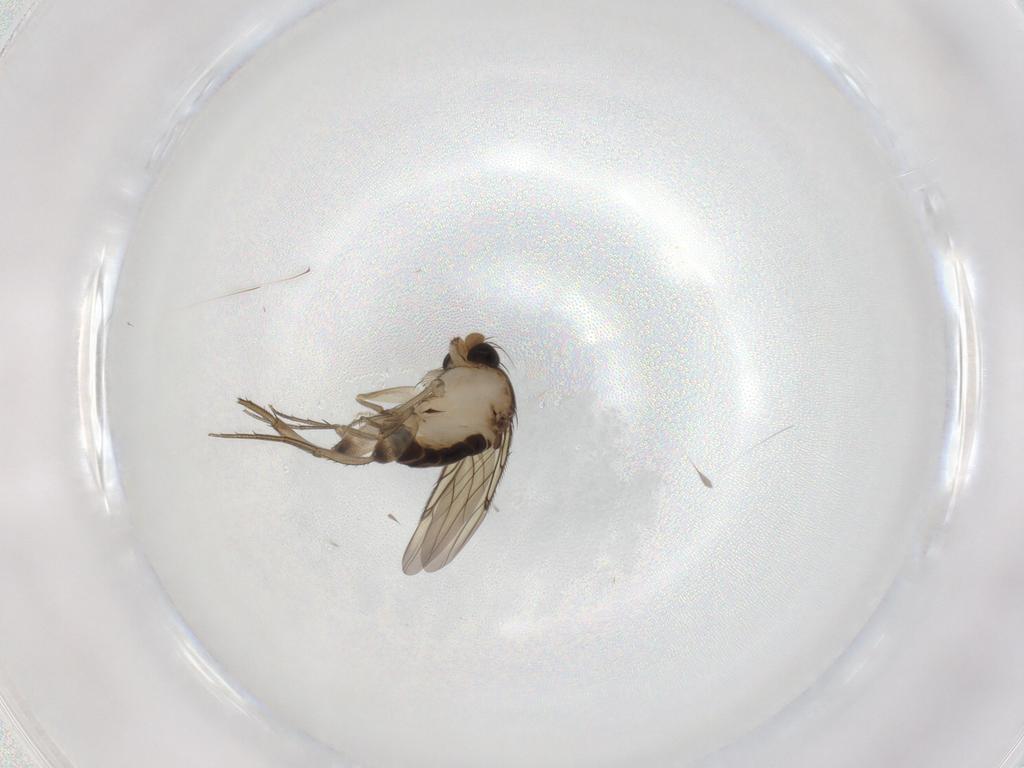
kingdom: Animalia
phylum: Arthropoda
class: Insecta
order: Diptera
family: Phoridae
